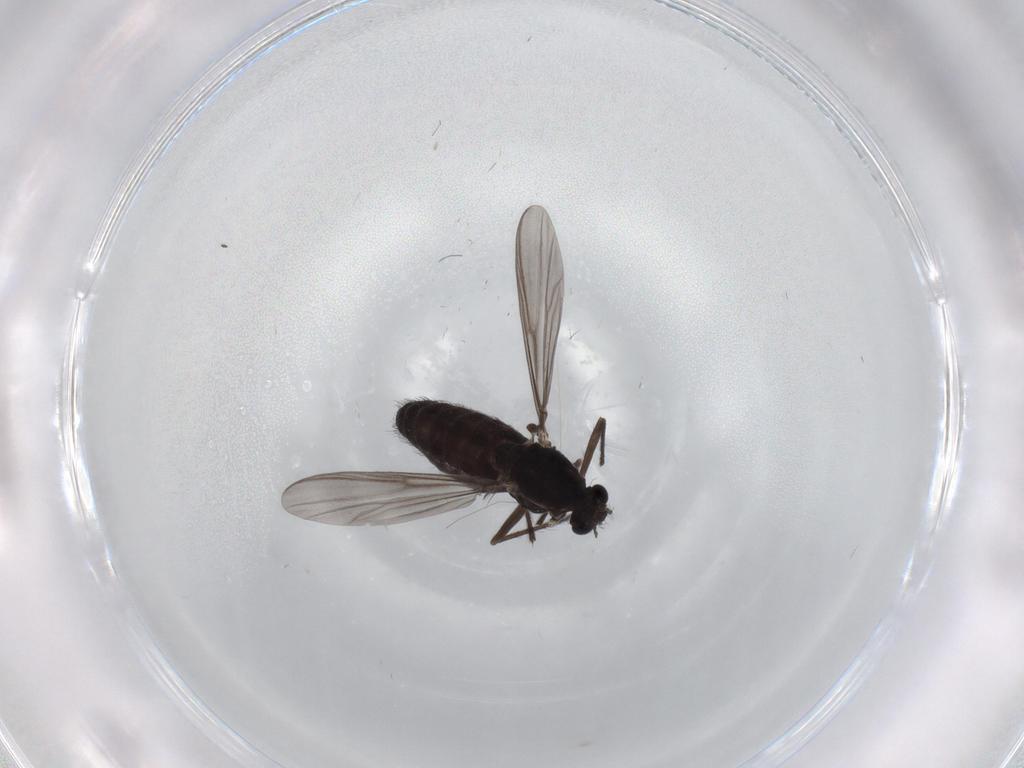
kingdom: Animalia
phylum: Arthropoda
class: Insecta
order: Diptera
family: Chironomidae
